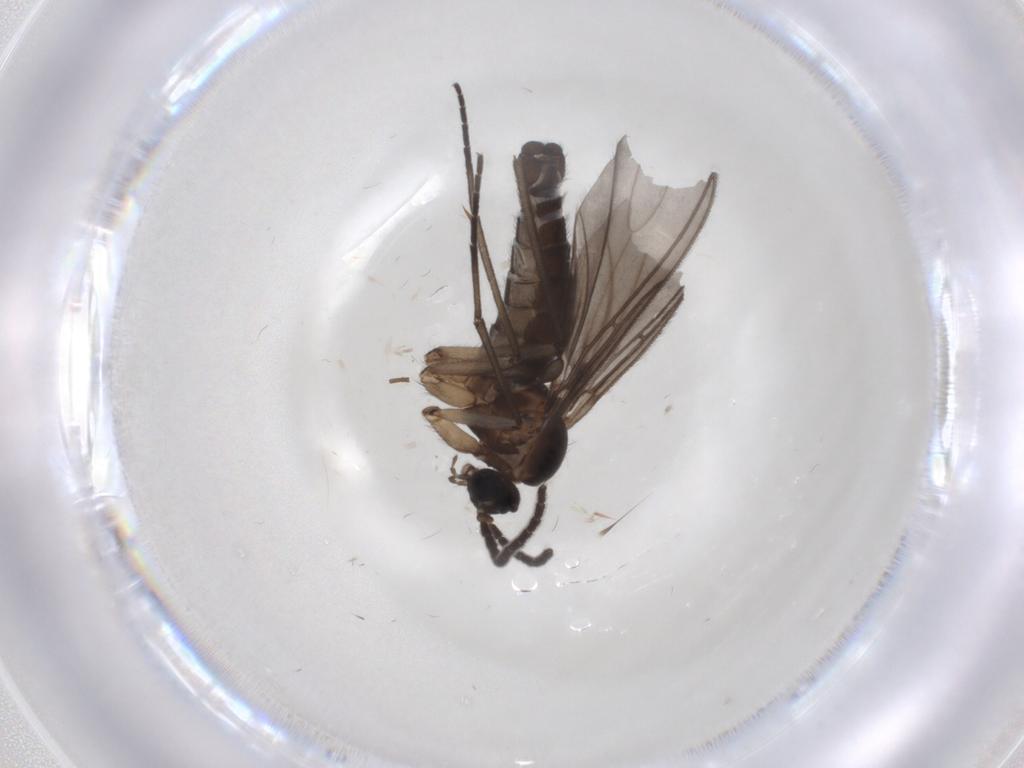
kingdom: Animalia
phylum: Arthropoda
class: Insecta
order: Diptera
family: Sciaridae
